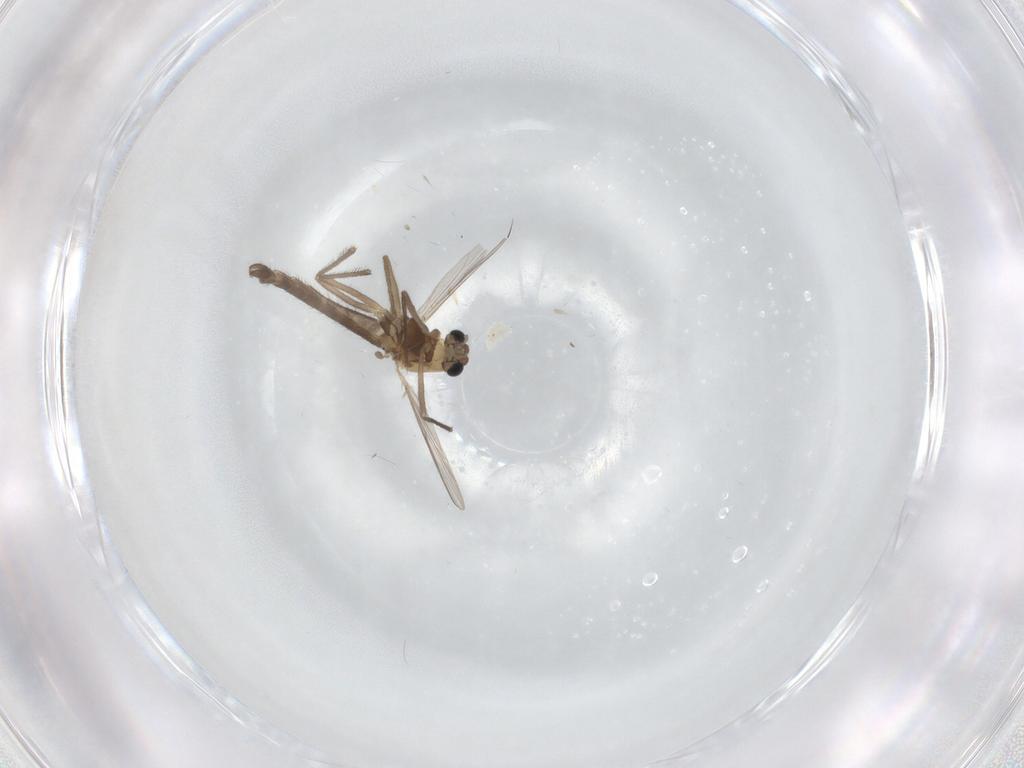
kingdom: Animalia
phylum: Arthropoda
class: Insecta
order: Diptera
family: Chironomidae
